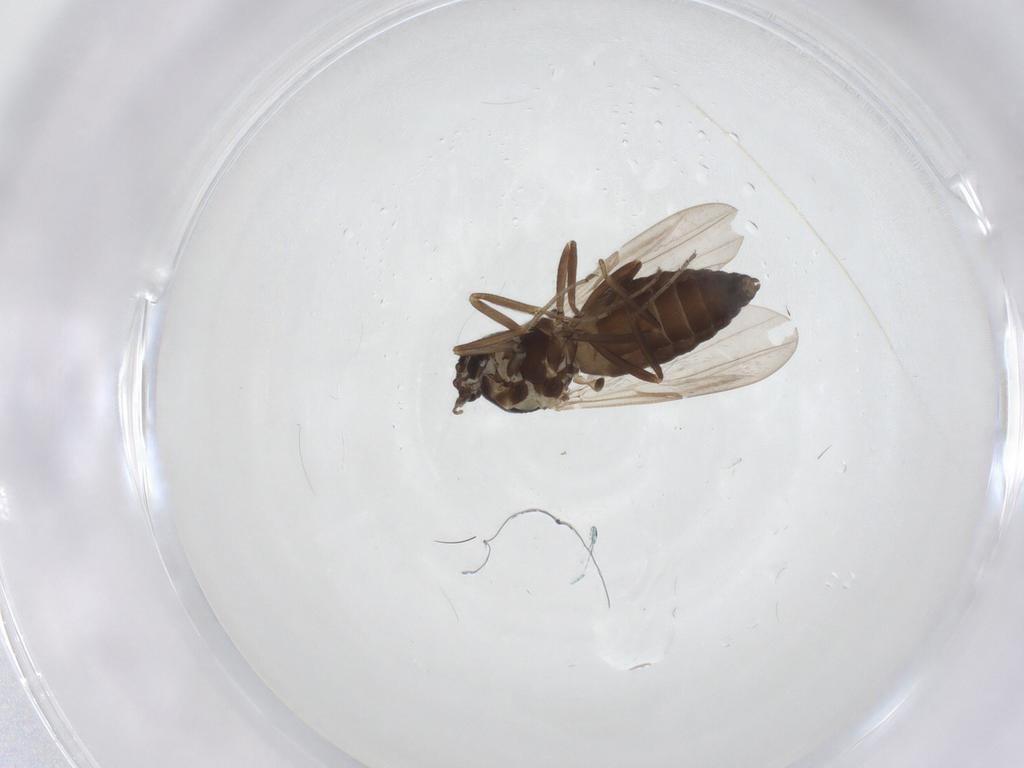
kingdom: Animalia
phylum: Arthropoda
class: Insecta
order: Diptera
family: Ceratopogonidae
